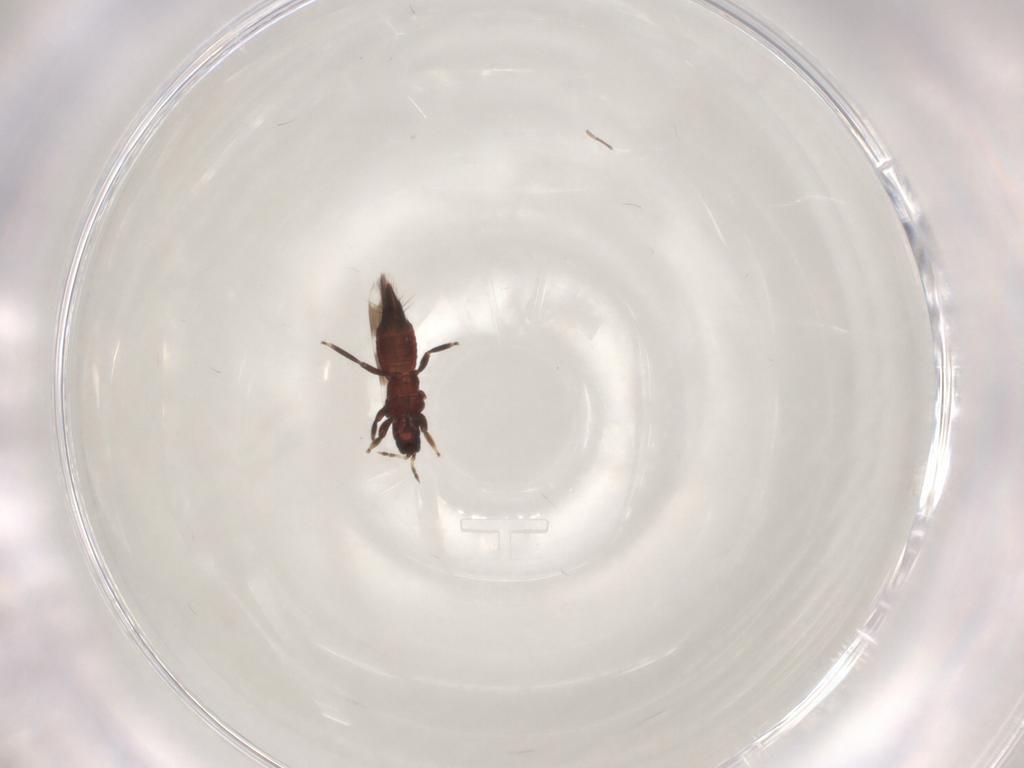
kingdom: Animalia
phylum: Arthropoda
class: Insecta
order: Thysanoptera
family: Aeolothripidae
